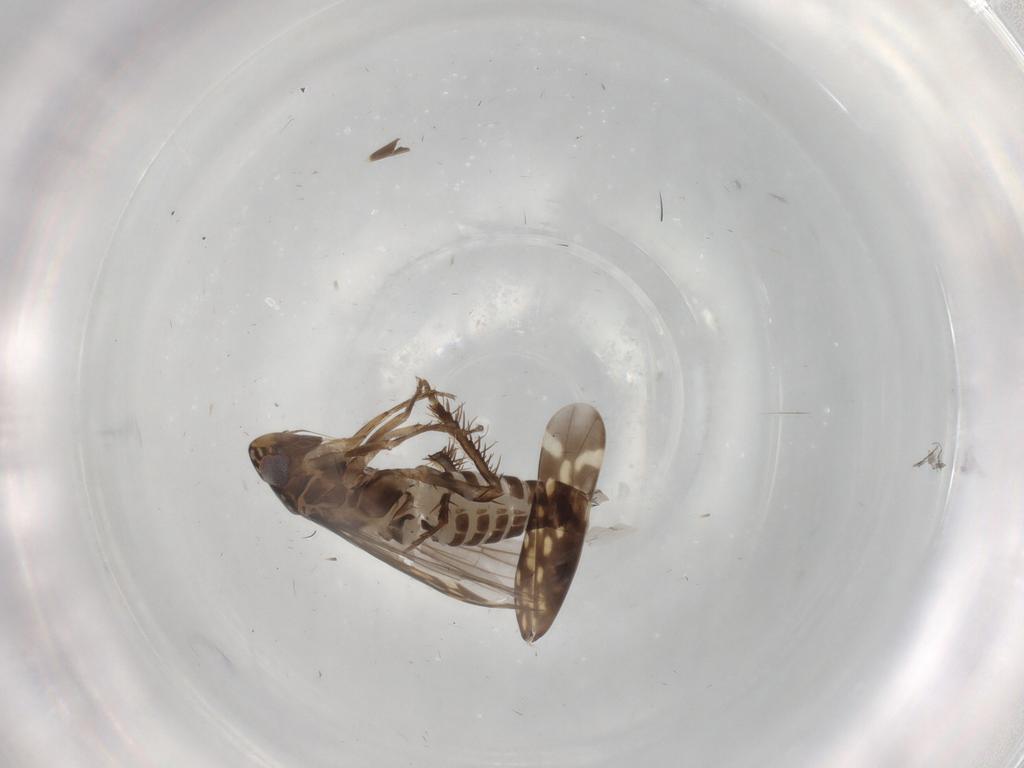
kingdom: Animalia
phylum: Arthropoda
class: Insecta
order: Hemiptera
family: Cicadellidae
